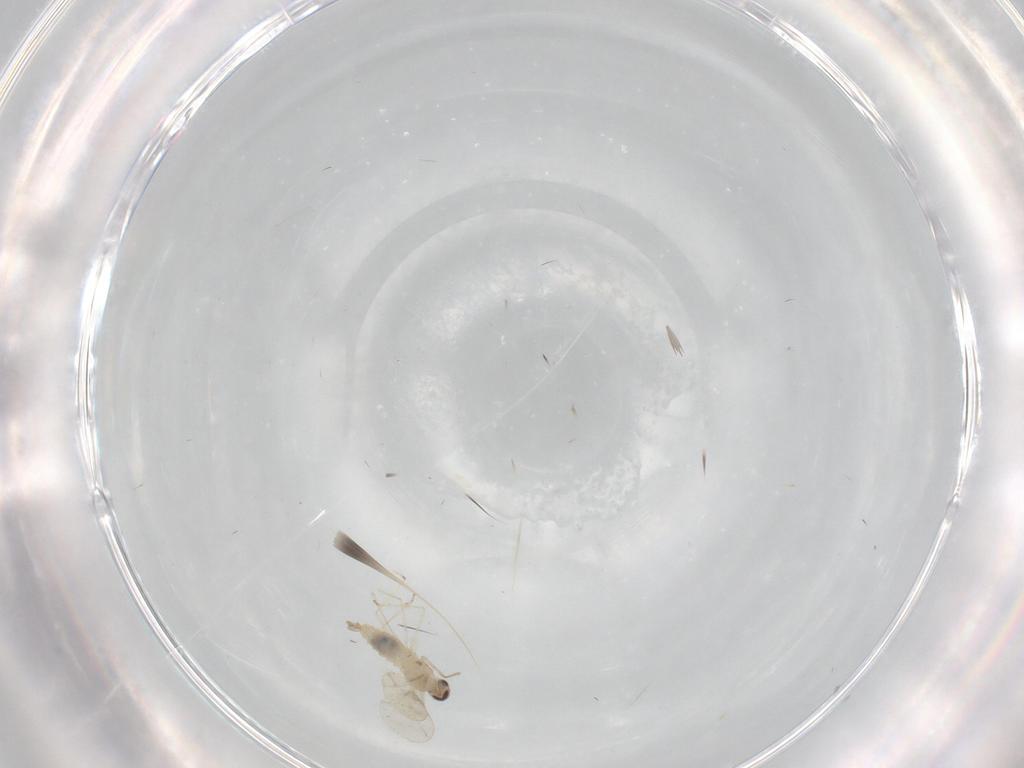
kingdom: Animalia
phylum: Arthropoda
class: Insecta
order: Diptera
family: Cecidomyiidae
